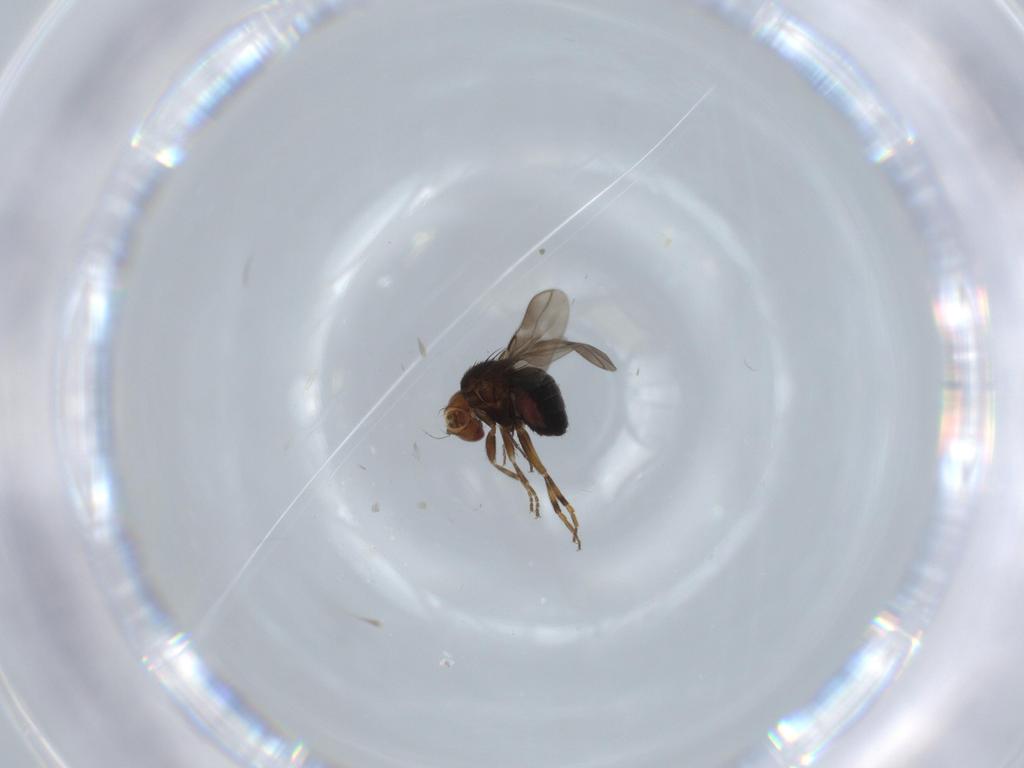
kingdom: Animalia
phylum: Arthropoda
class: Insecta
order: Diptera
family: Sphaeroceridae
